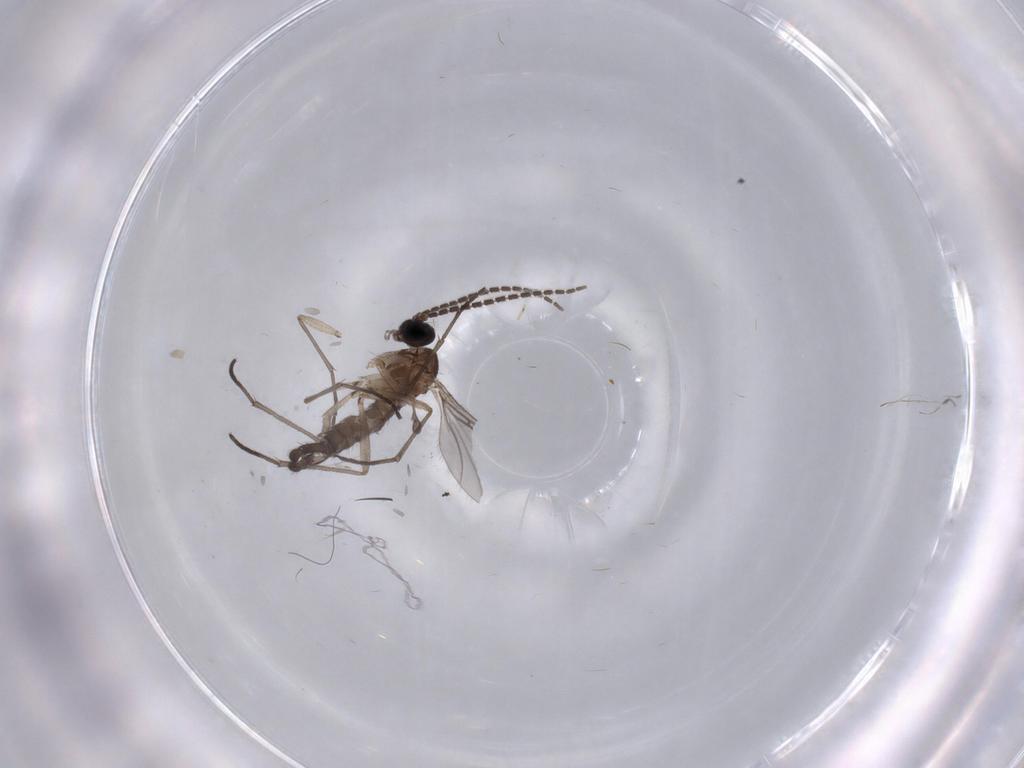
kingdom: Animalia
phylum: Arthropoda
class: Insecta
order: Diptera
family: Sciaridae
